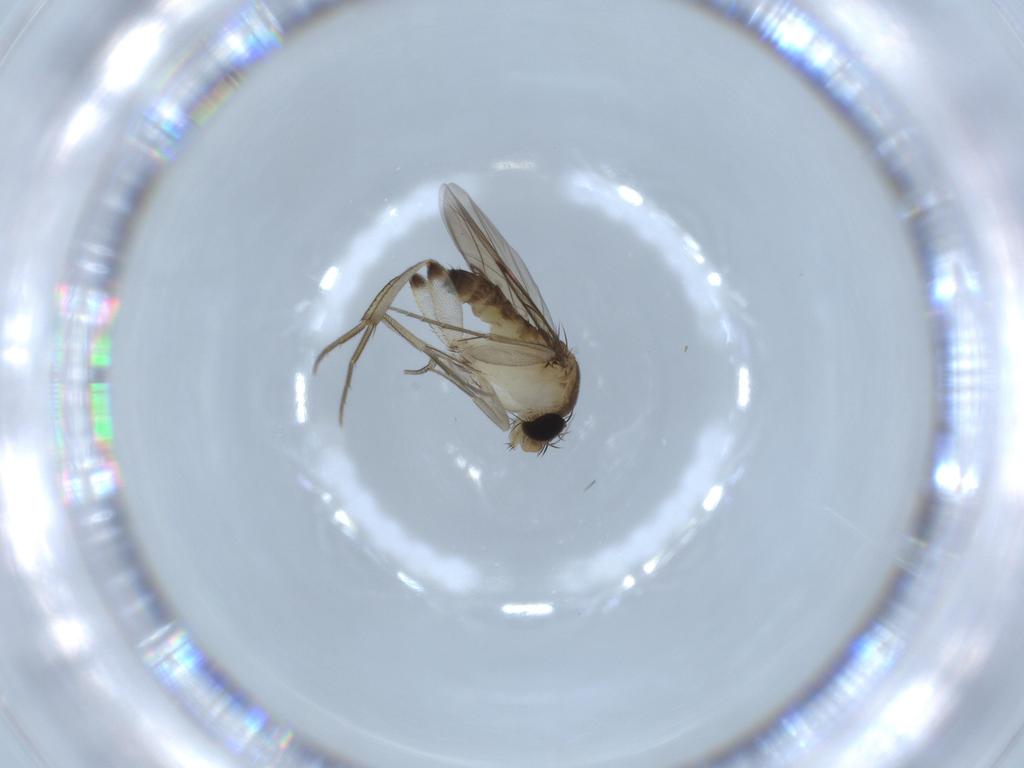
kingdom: Animalia
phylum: Arthropoda
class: Insecta
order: Diptera
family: Phoridae
